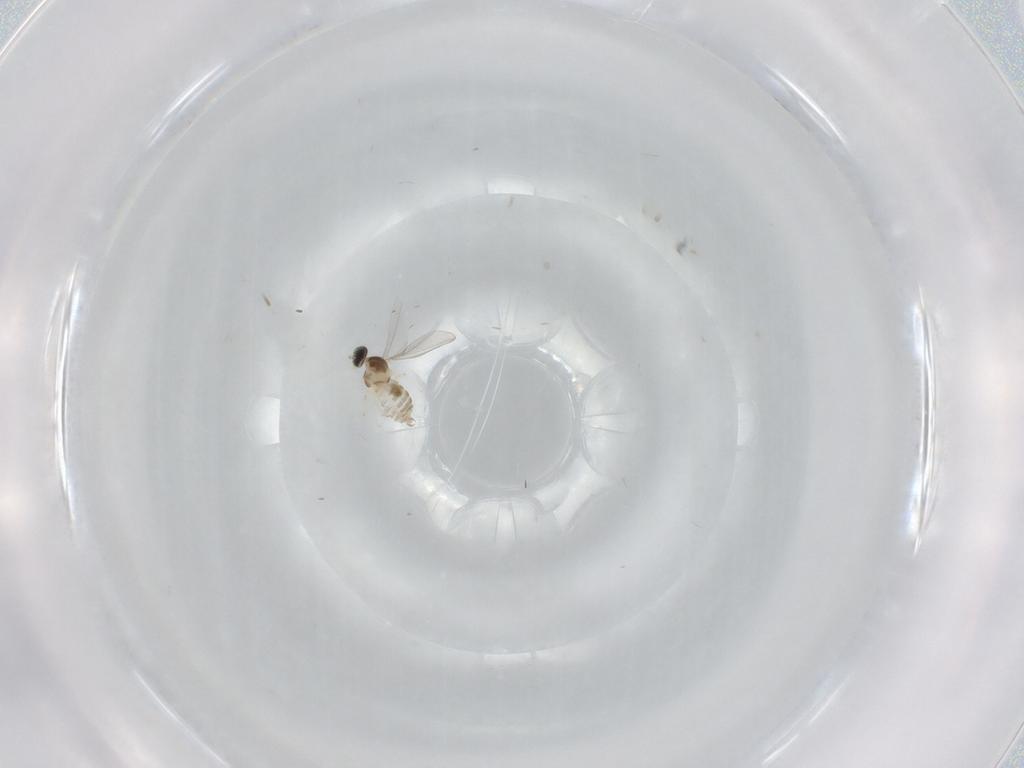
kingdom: Animalia
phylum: Arthropoda
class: Insecta
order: Diptera
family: Cecidomyiidae
